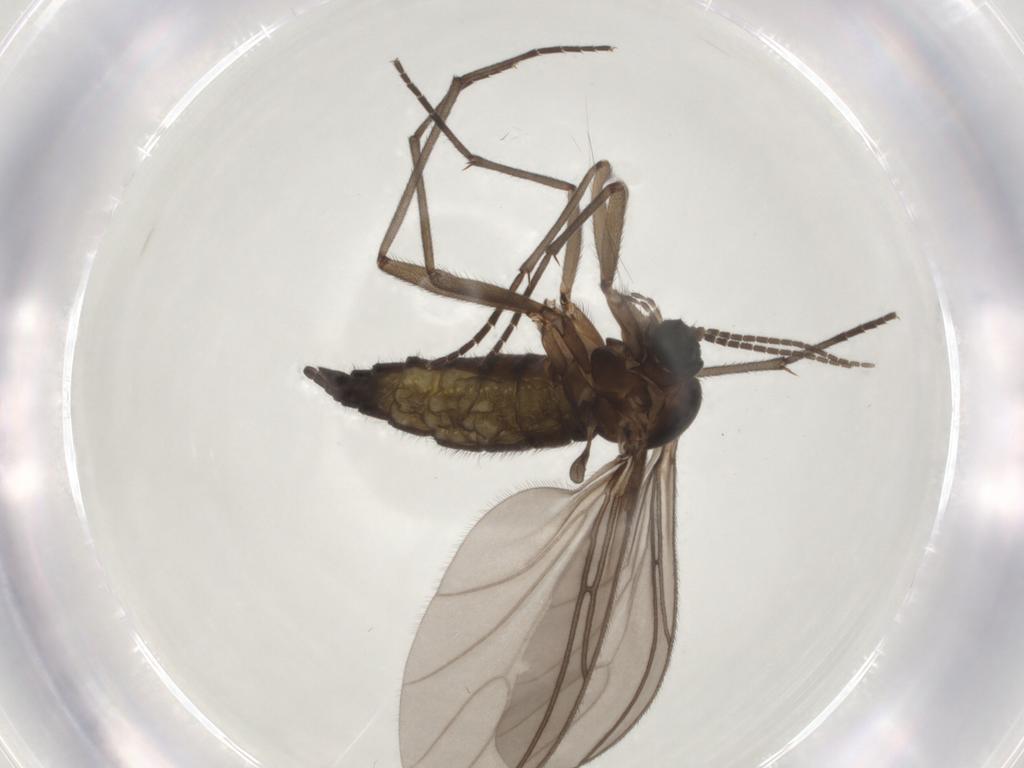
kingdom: Animalia
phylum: Arthropoda
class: Insecta
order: Diptera
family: Sciaridae
